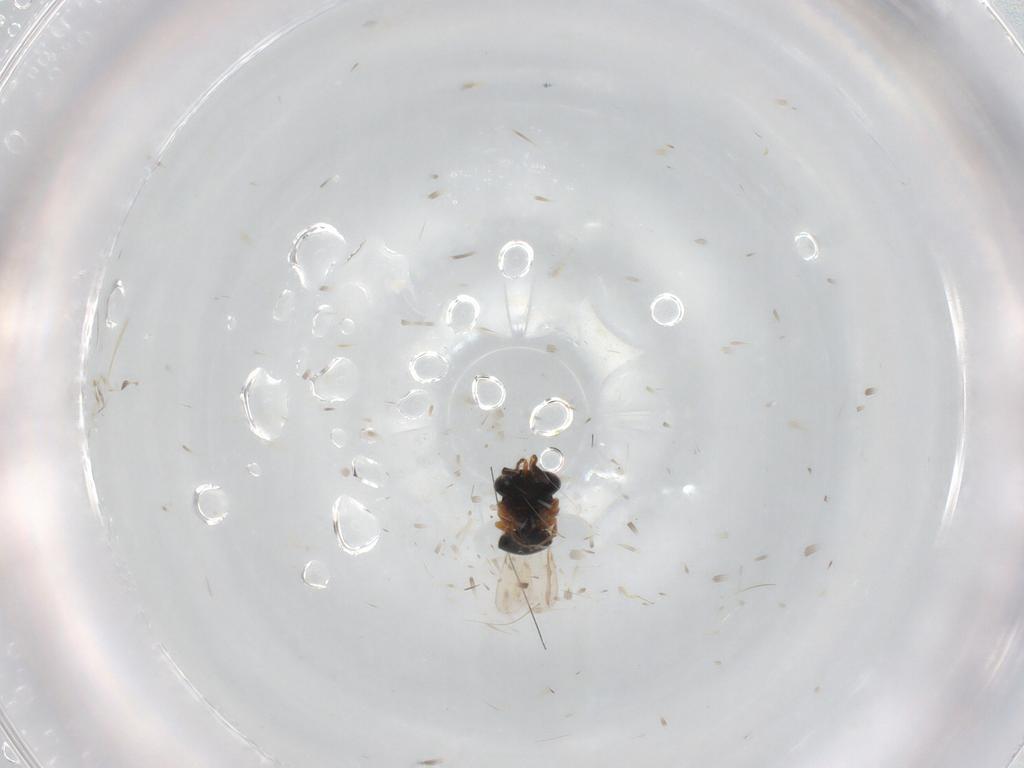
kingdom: Animalia
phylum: Arthropoda
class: Insecta
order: Hymenoptera
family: Scelionidae
